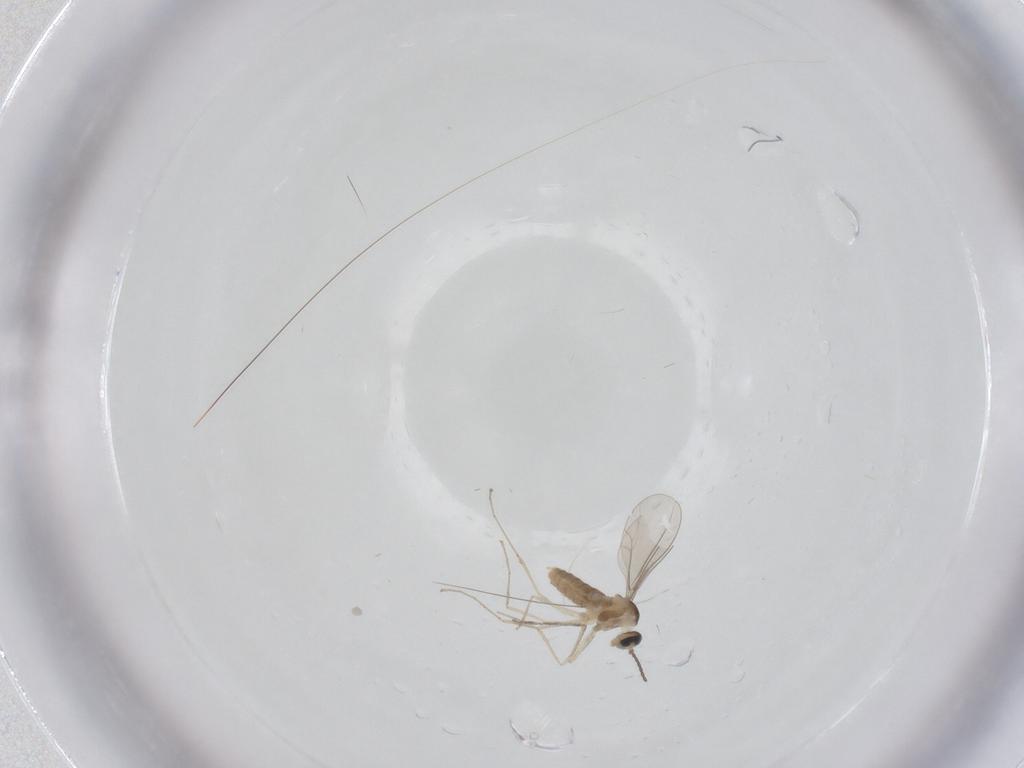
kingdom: Animalia
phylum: Arthropoda
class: Insecta
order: Diptera
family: Cecidomyiidae
